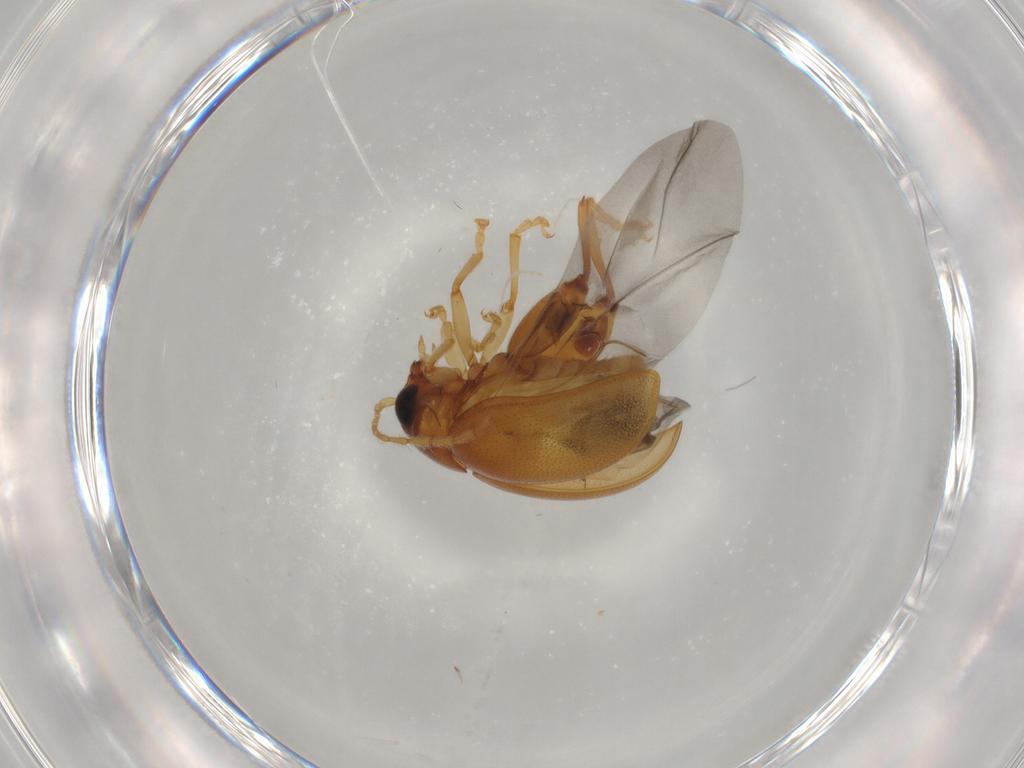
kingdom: Animalia
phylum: Arthropoda
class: Insecta
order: Coleoptera
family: Chrysomelidae
